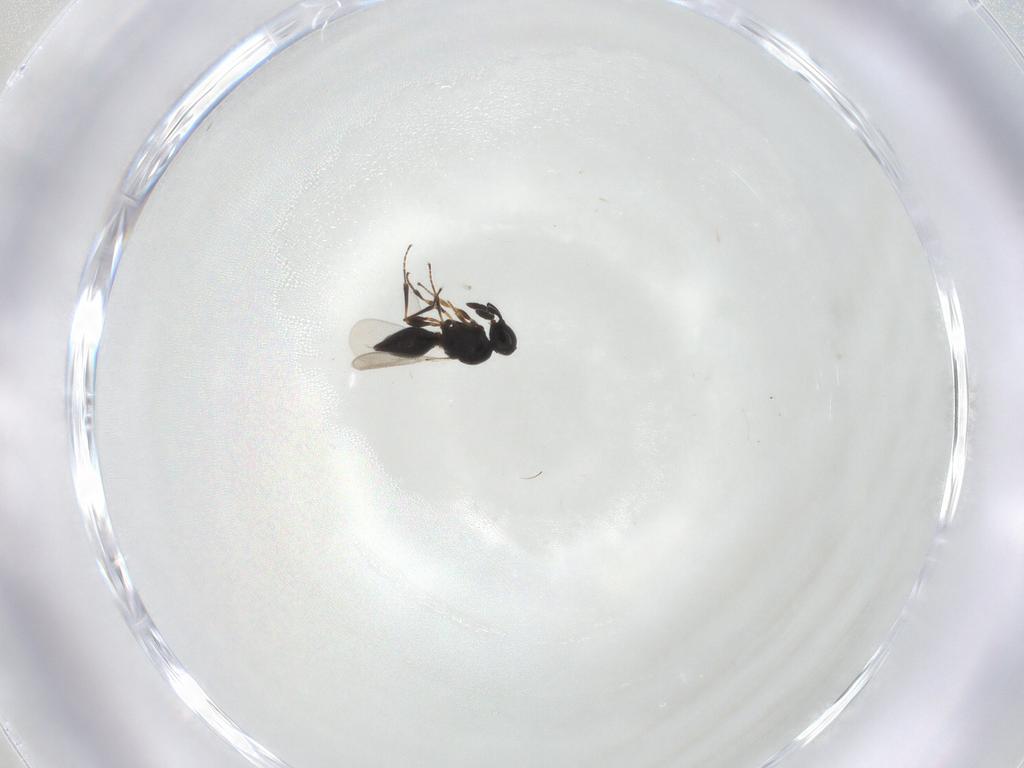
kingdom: Animalia
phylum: Arthropoda
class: Insecta
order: Hymenoptera
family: Platygastridae
